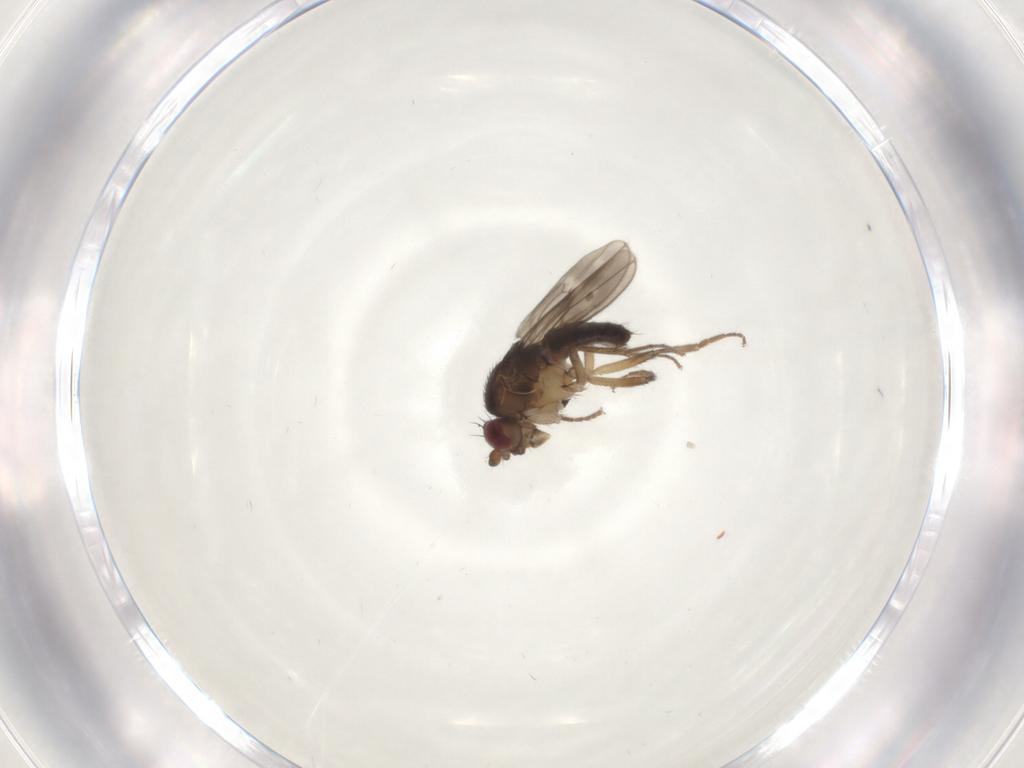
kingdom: Animalia
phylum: Arthropoda
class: Insecta
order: Diptera
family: Sphaeroceridae
